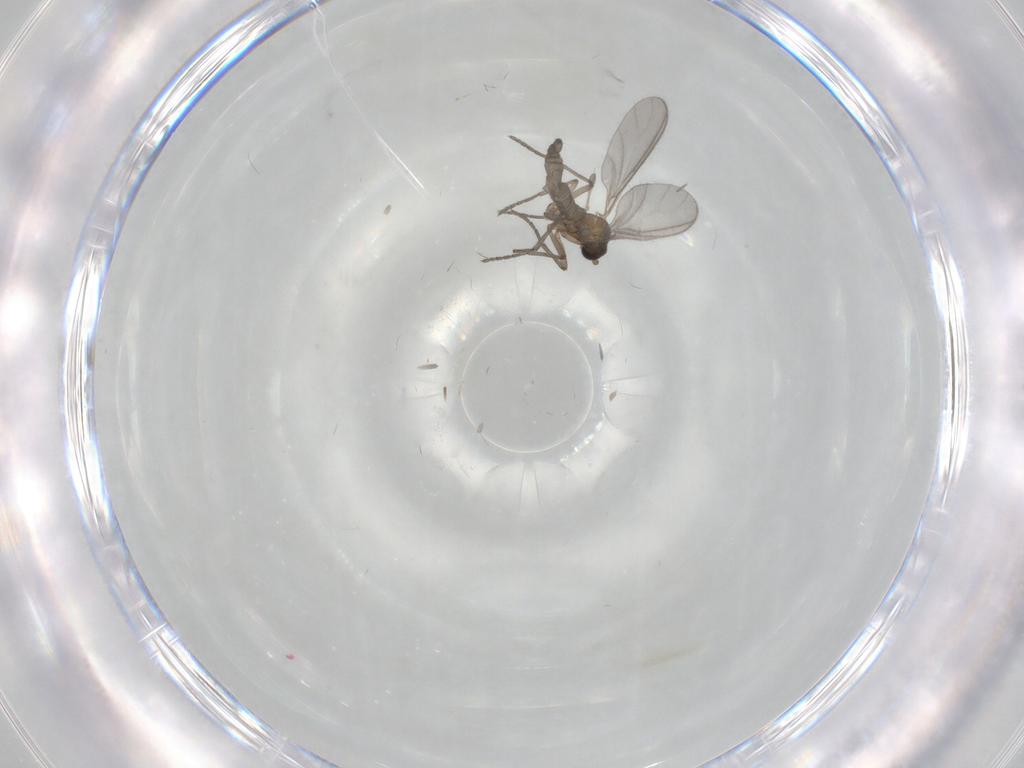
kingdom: Animalia
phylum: Arthropoda
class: Insecta
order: Diptera
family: Sciaridae
